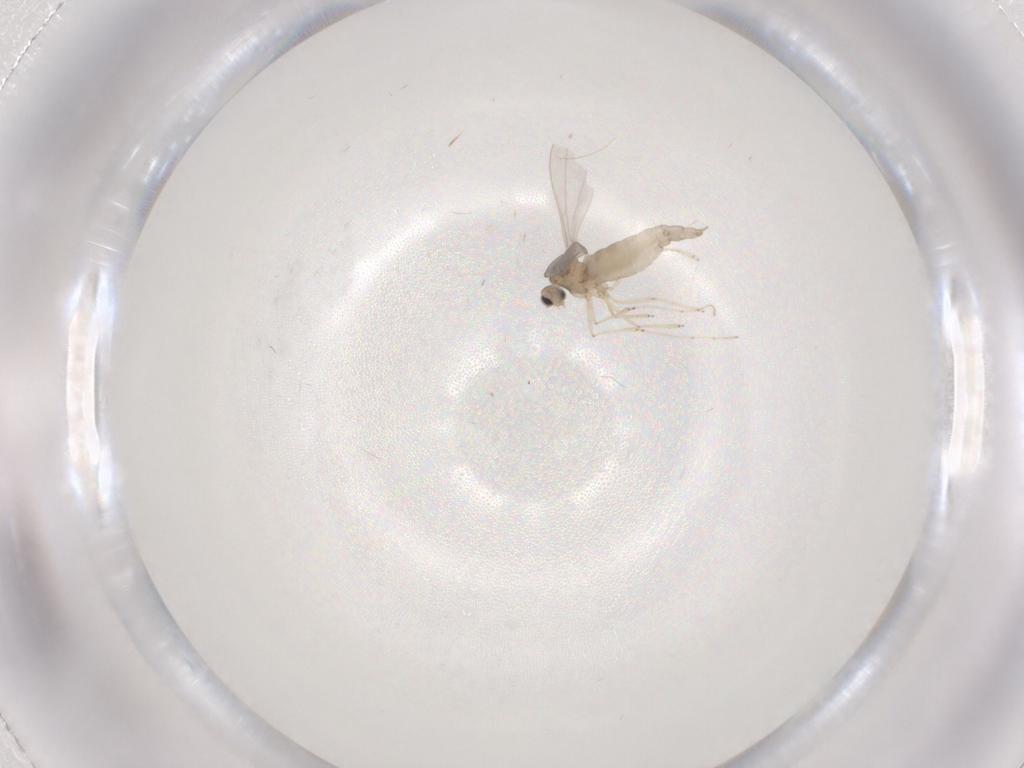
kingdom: Animalia
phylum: Arthropoda
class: Insecta
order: Diptera
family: Cecidomyiidae
